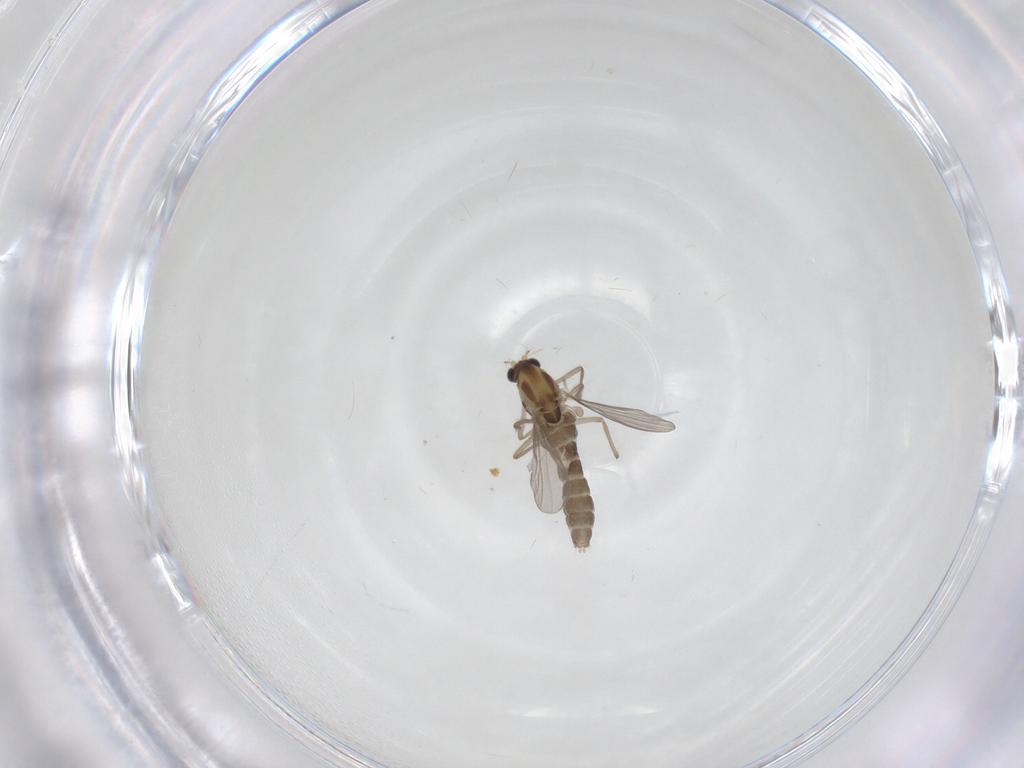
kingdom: Animalia
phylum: Arthropoda
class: Insecta
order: Diptera
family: Chironomidae
